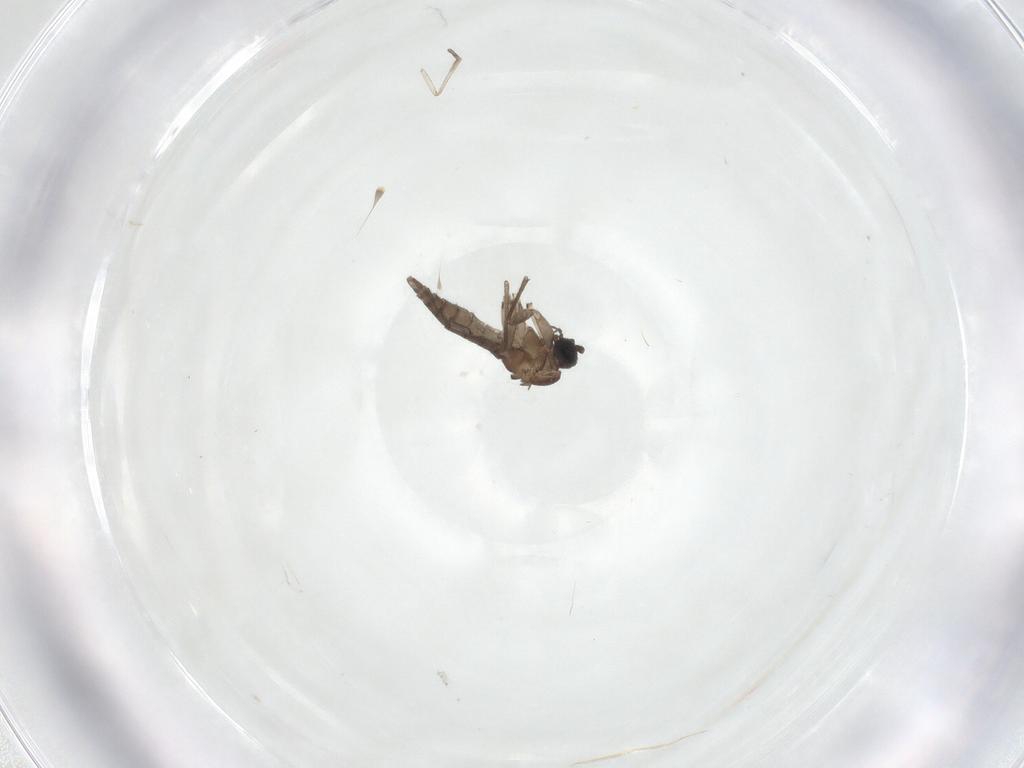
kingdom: Animalia
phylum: Arthropoda
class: Insecta
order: Diptera
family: Sciaridae
